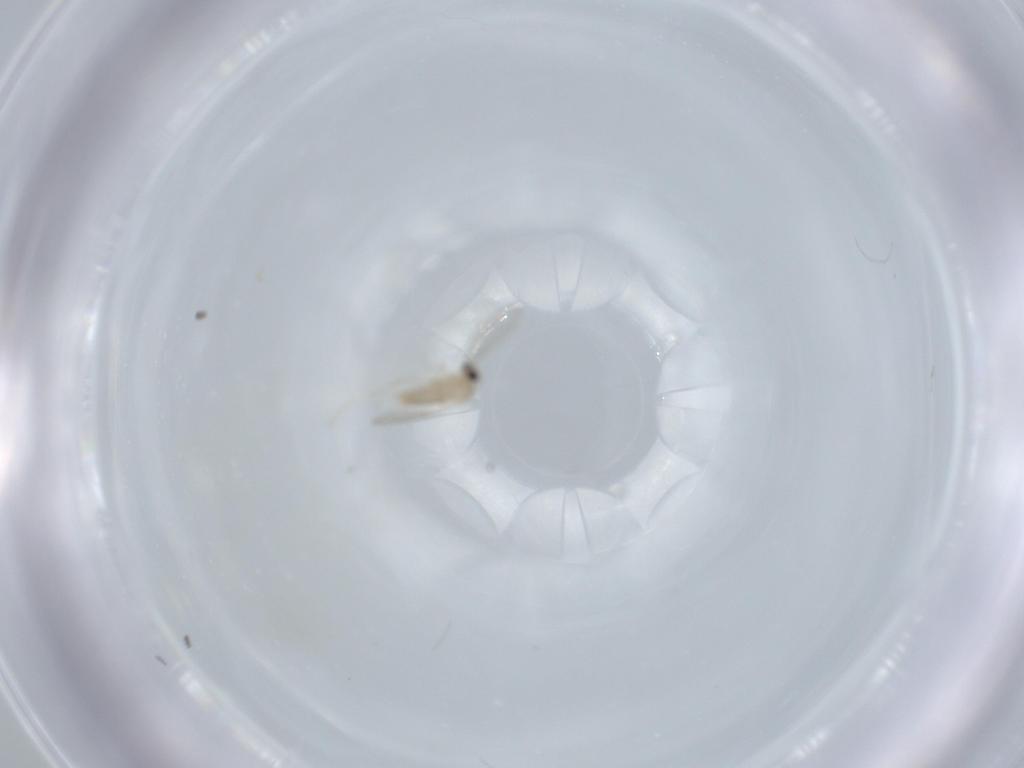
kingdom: Animalia
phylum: Arthropoda
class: Insecta
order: Diptera
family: Cecidomyiidae
